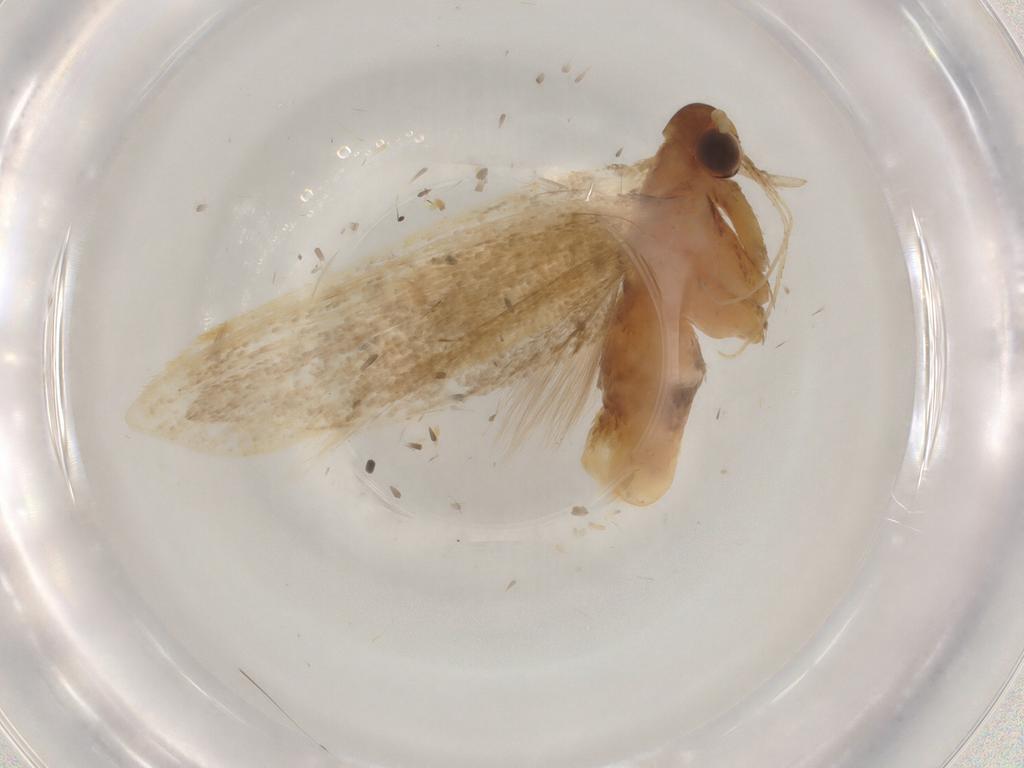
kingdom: Animalia
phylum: Arthropoda
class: Insecta
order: Lepidoptera
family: Lecithoceridae
